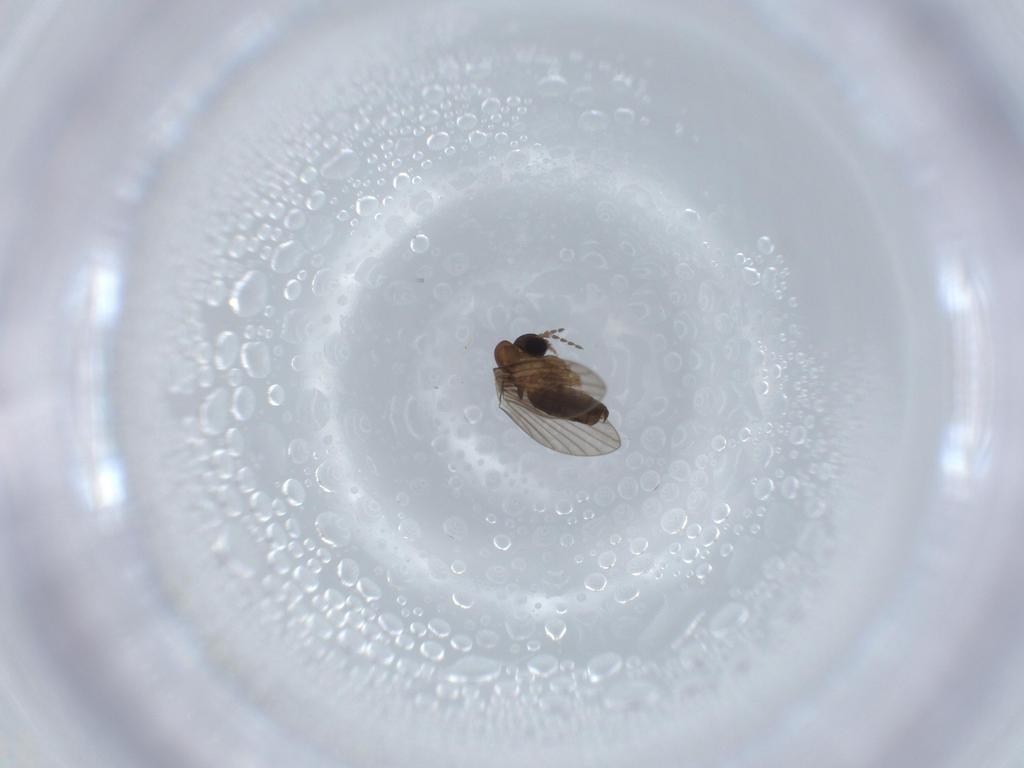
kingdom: Animalia
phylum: Arthropoda
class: Insecta
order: Diptera
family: Psychodidae
